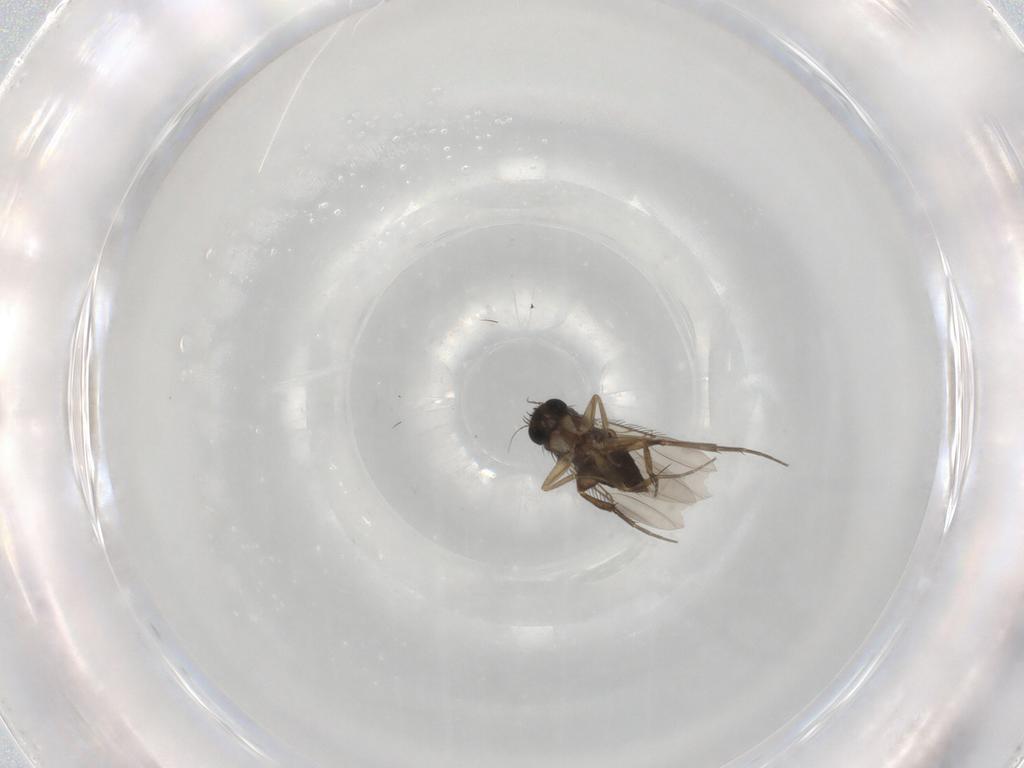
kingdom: Animalia
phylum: Arthropoda
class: Insecta
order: Diptera
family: Phoridae
